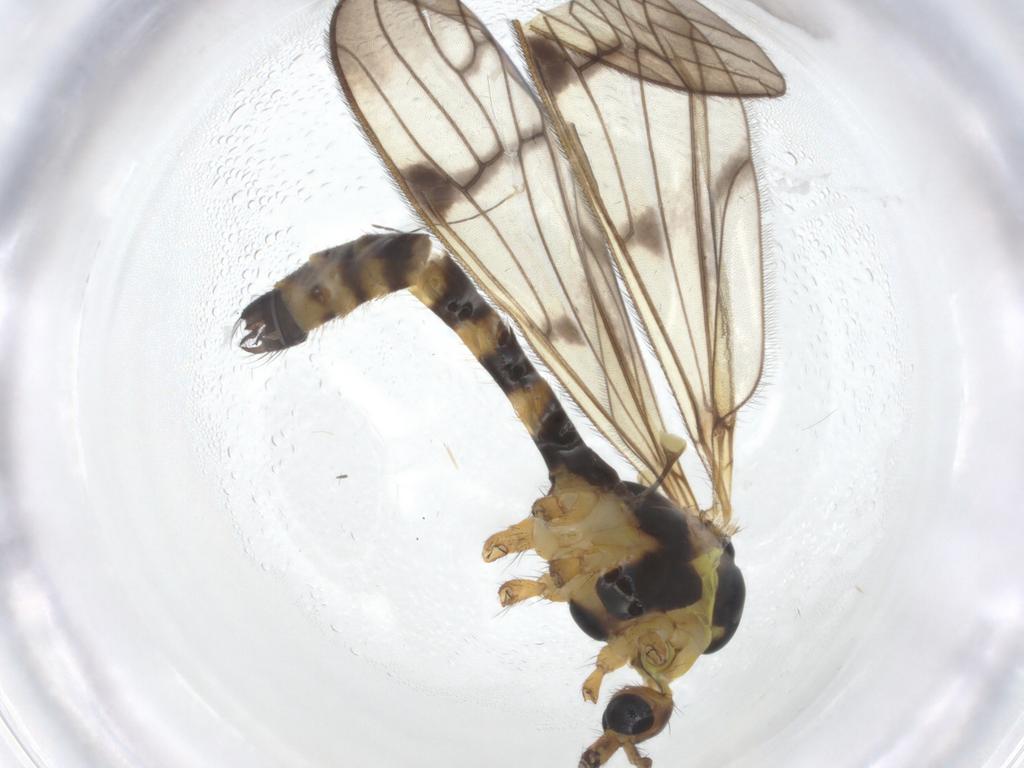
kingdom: Animalia
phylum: Arthropoda
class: Insecta
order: Diptera
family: Limoniidae
